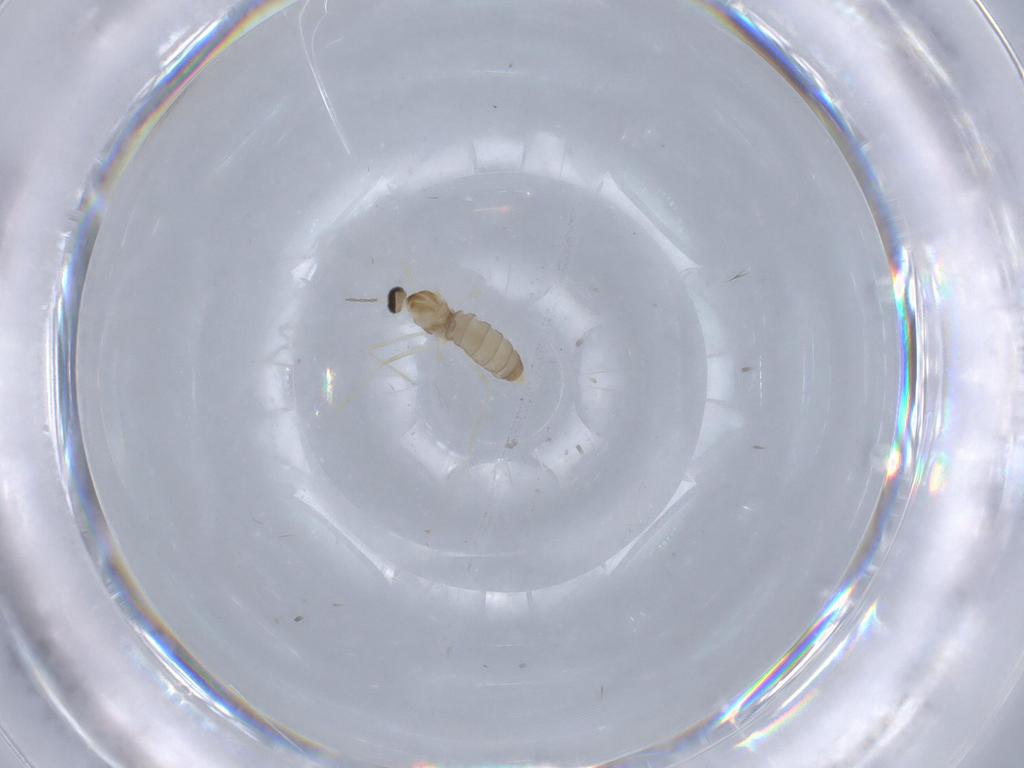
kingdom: Animalia
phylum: Arthropoda
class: Insecta
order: Diptera
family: Cecidomyiidae
